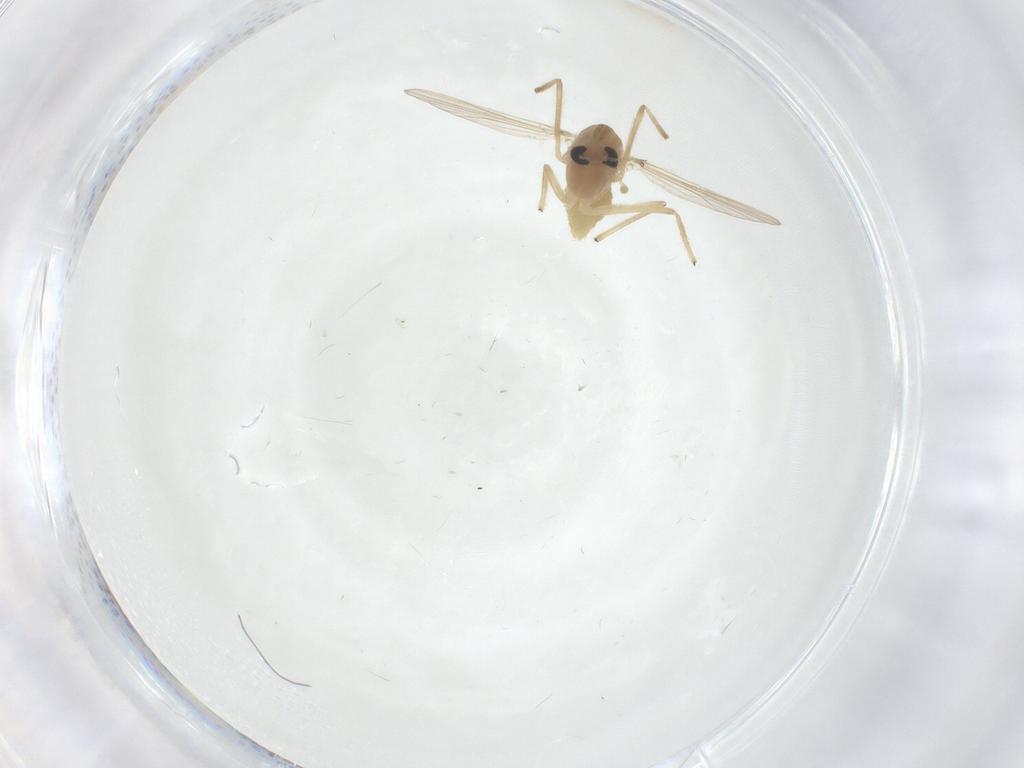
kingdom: Animalia
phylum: Arthropoda
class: Insecta
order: Diptera
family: Chironomidae
